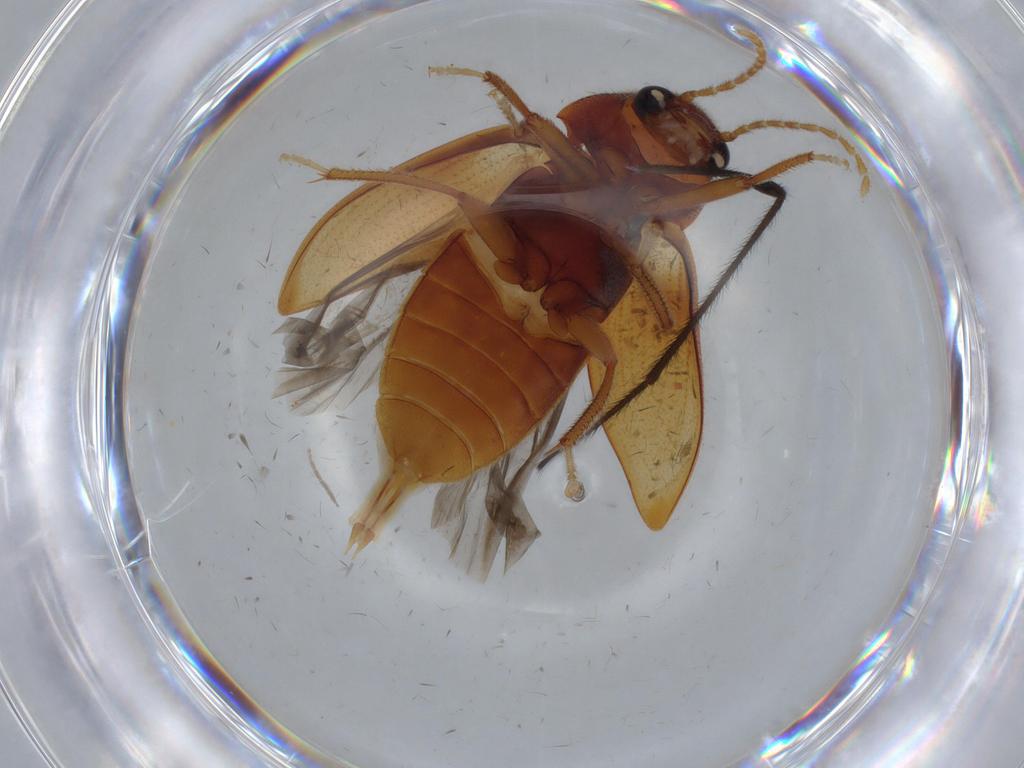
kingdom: Animalia
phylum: Arthropoda
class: Insecta
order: Coleoptera
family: Ptilodactylidae
